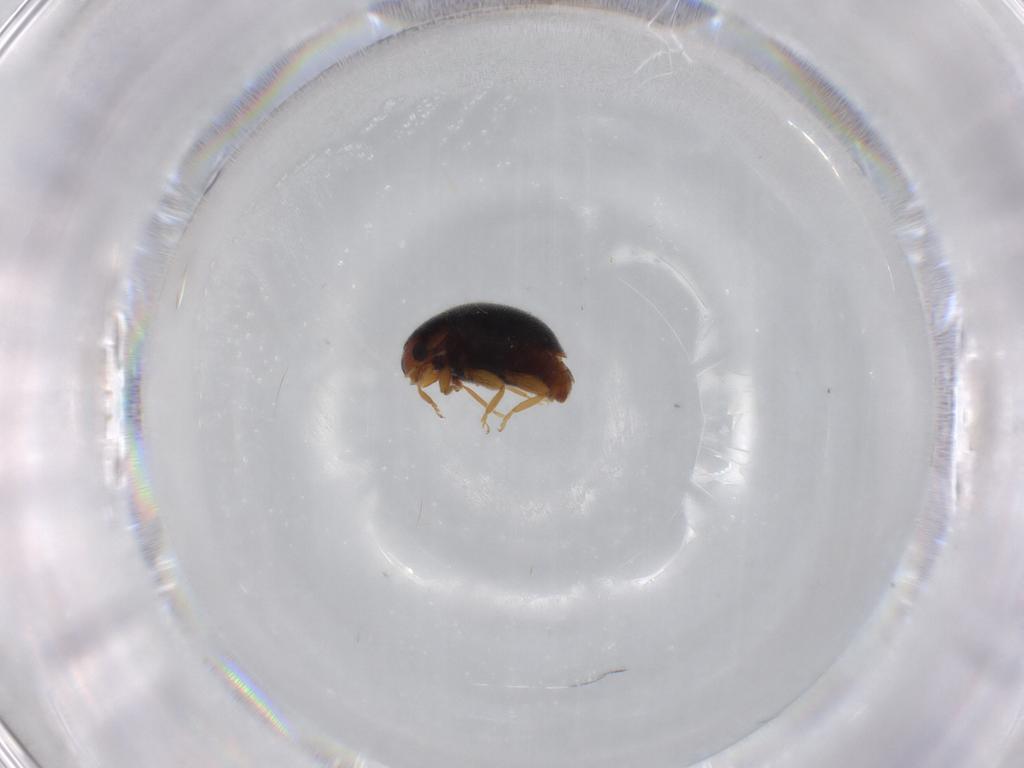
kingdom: Animalia
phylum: Arthropoda
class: Insecta
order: Coleoptera
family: Coccinellidae
